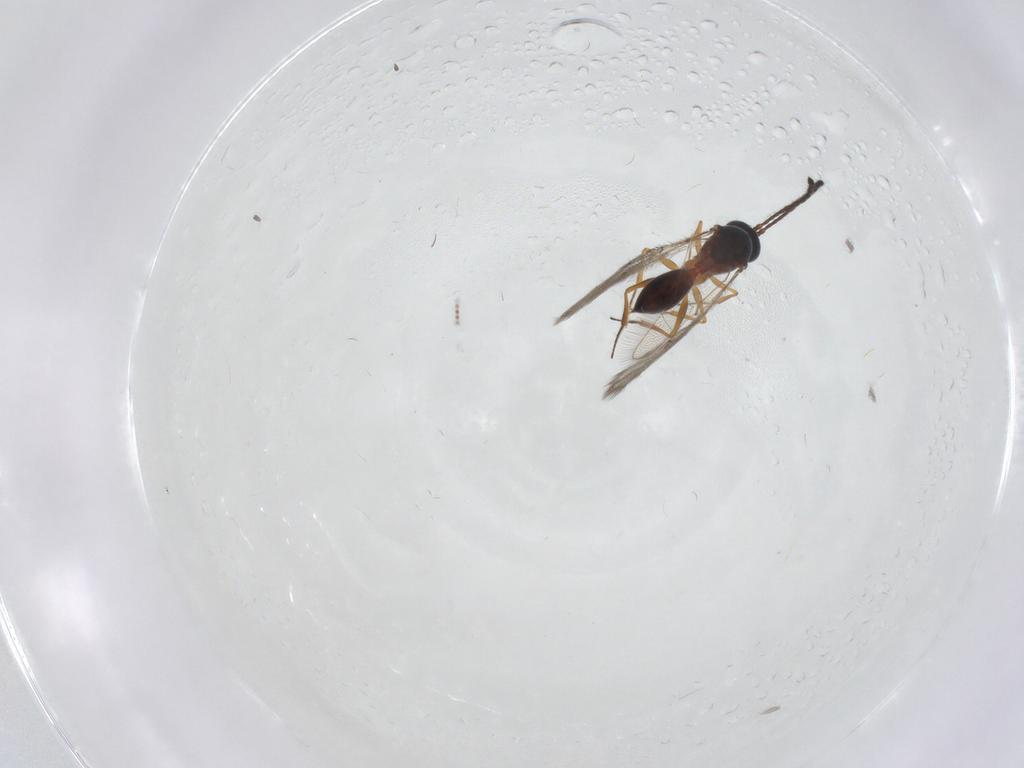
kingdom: Animalia
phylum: Arthropoda
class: Insecta
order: Hymenoptera
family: Figitidae
